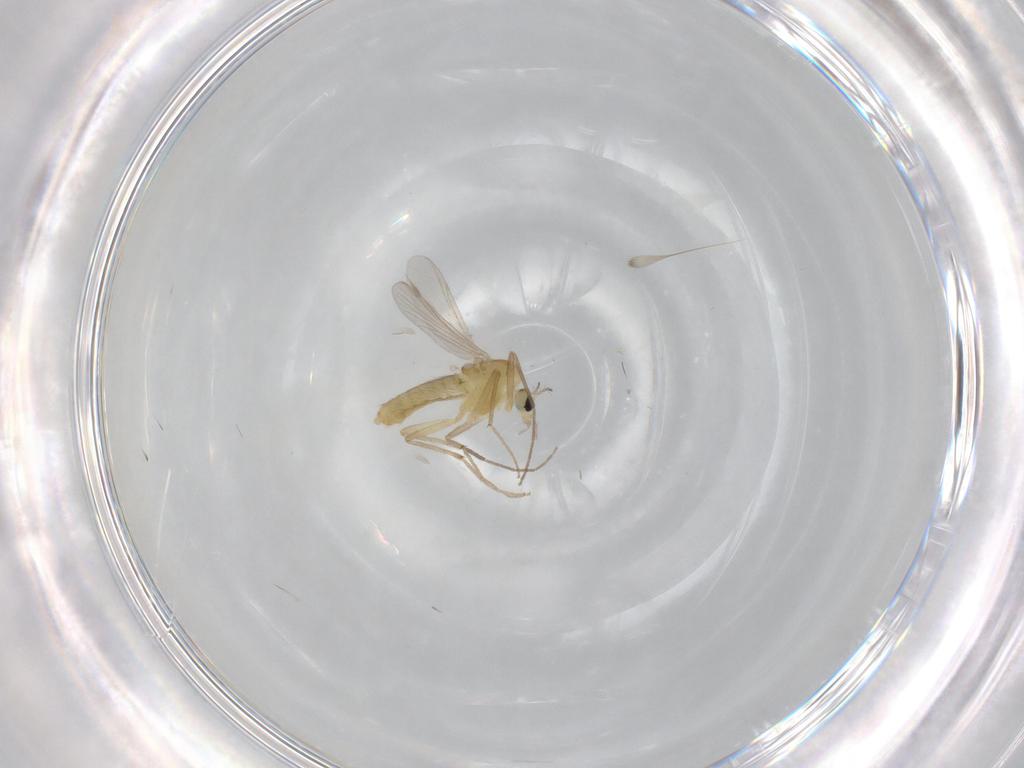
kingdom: Animalia
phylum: Arthropoda
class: Insecta
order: Diptera
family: Chironomidae
